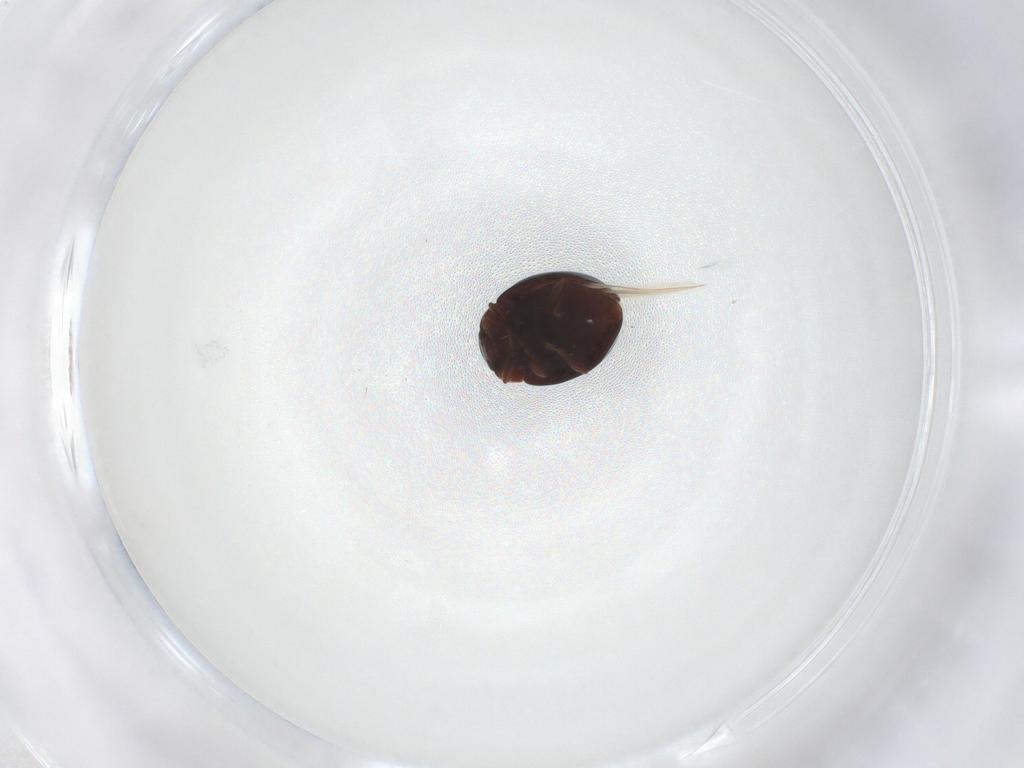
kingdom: Animalia
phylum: Arthropoda
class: Insecta
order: Coleoptera
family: Coccinellidae
